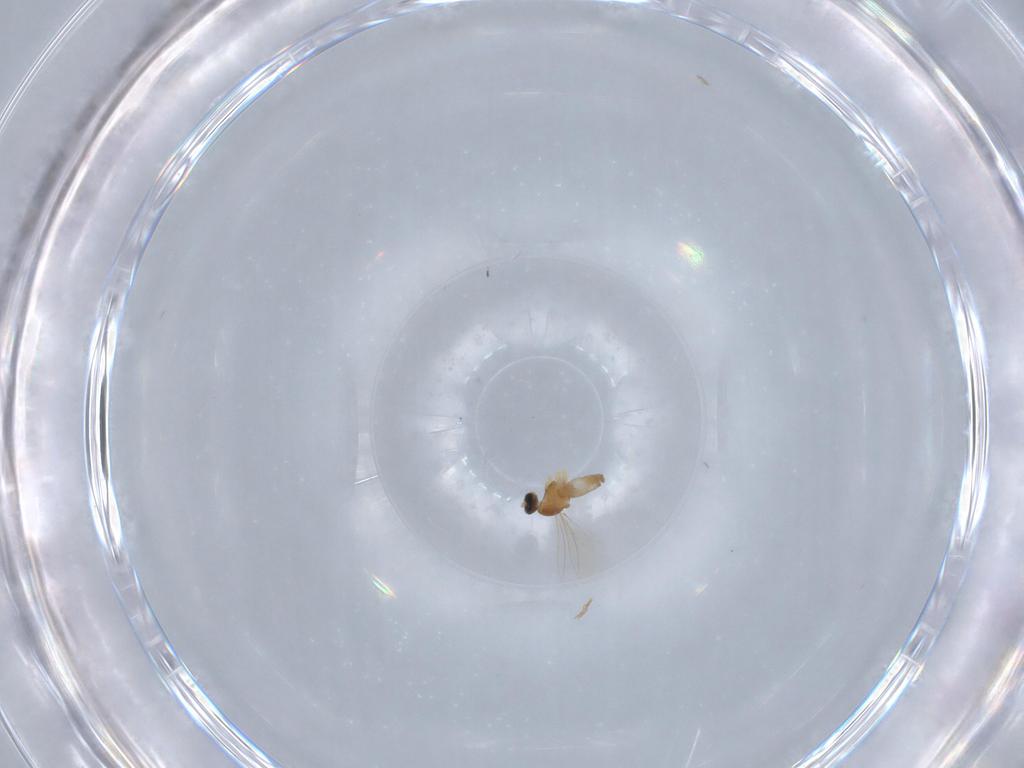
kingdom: Animalia
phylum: Arthropoda
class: Insecta
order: Diptera
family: Cecidomyiidae
